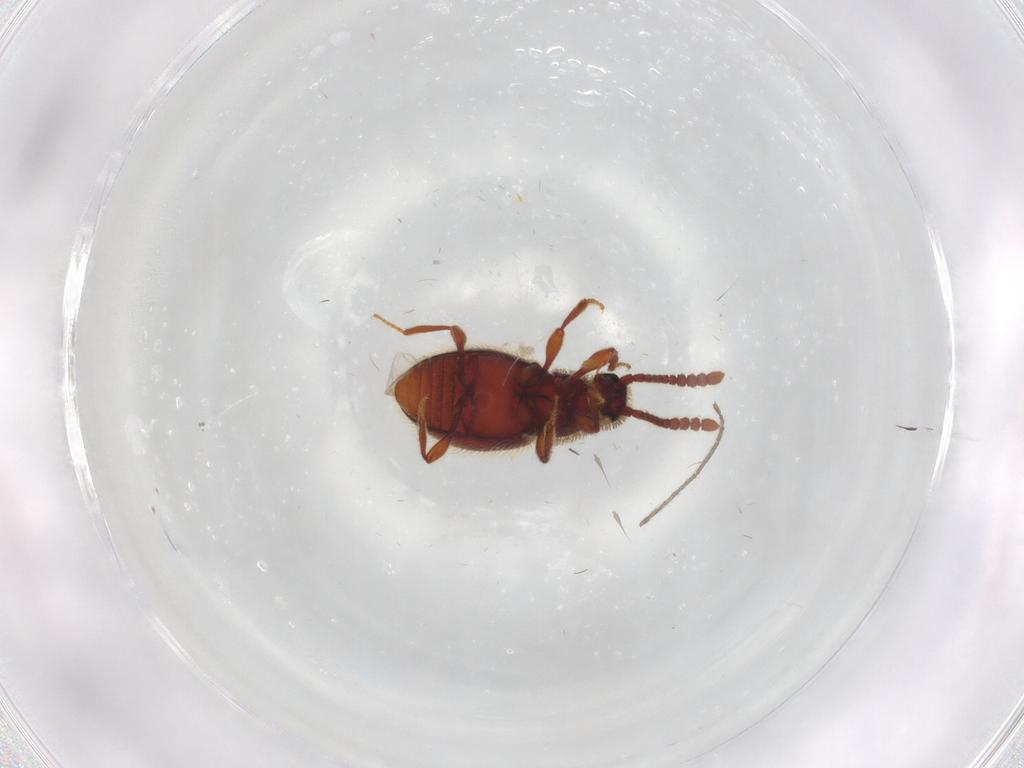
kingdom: Animalia
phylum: Arthropoda
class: Insecta
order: Coleoptera
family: Staphylinidae
